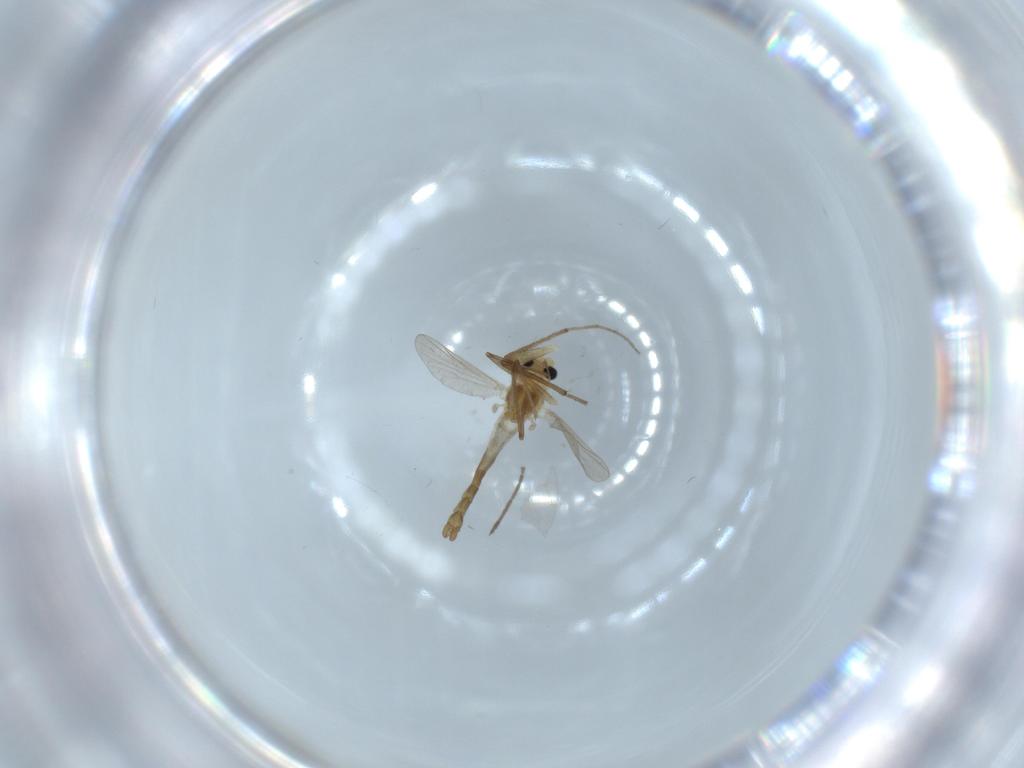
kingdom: Animalia
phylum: Arthropoda
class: Insecta
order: Diptera
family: Chironomidae
